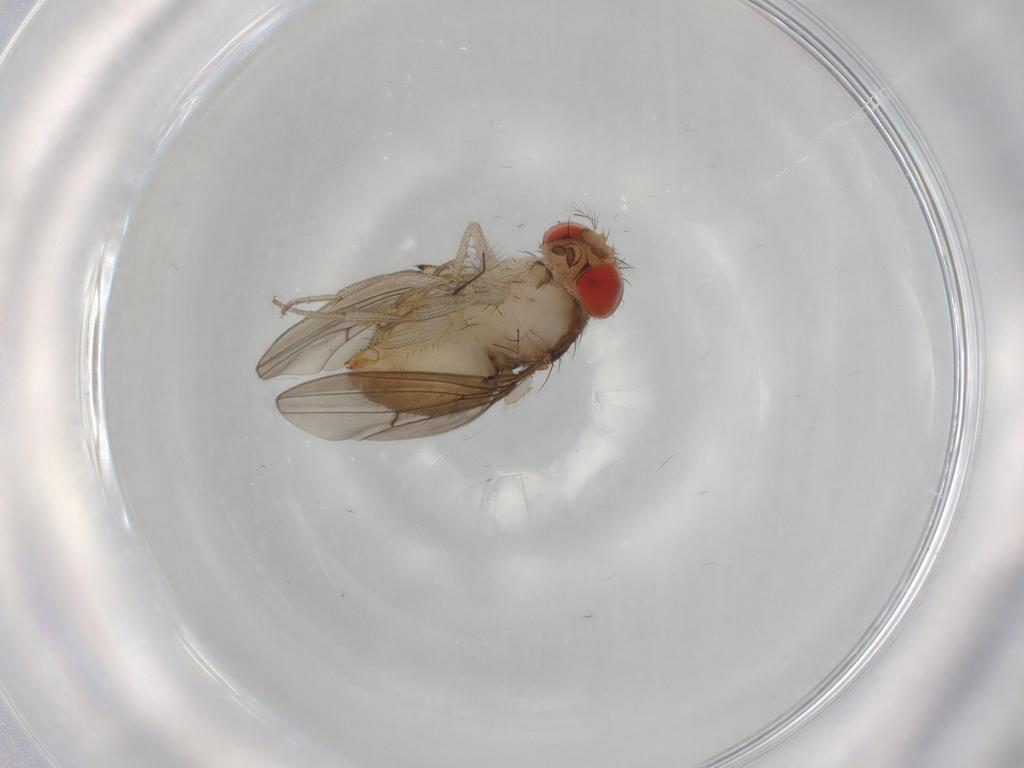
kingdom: Animalia
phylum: Arthropoda
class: Insecta
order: Diptera
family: Drosophilidae
